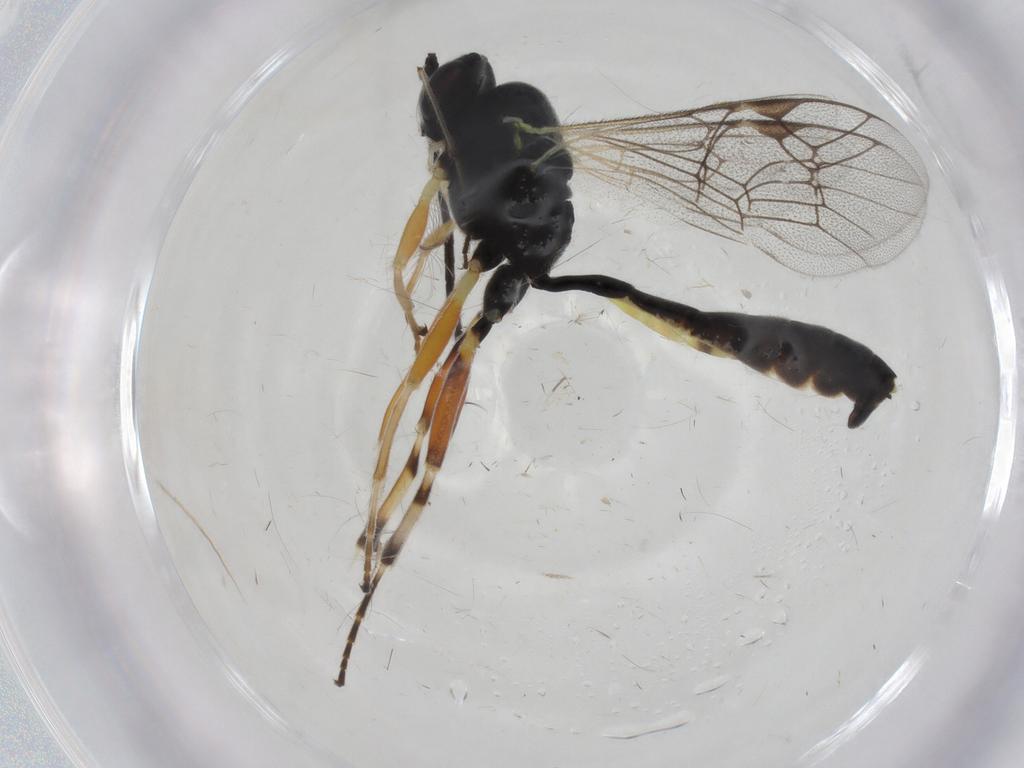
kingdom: Animalia
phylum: Arthropoda
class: Insecta
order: Hymenoptera
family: Ichneumonidae
